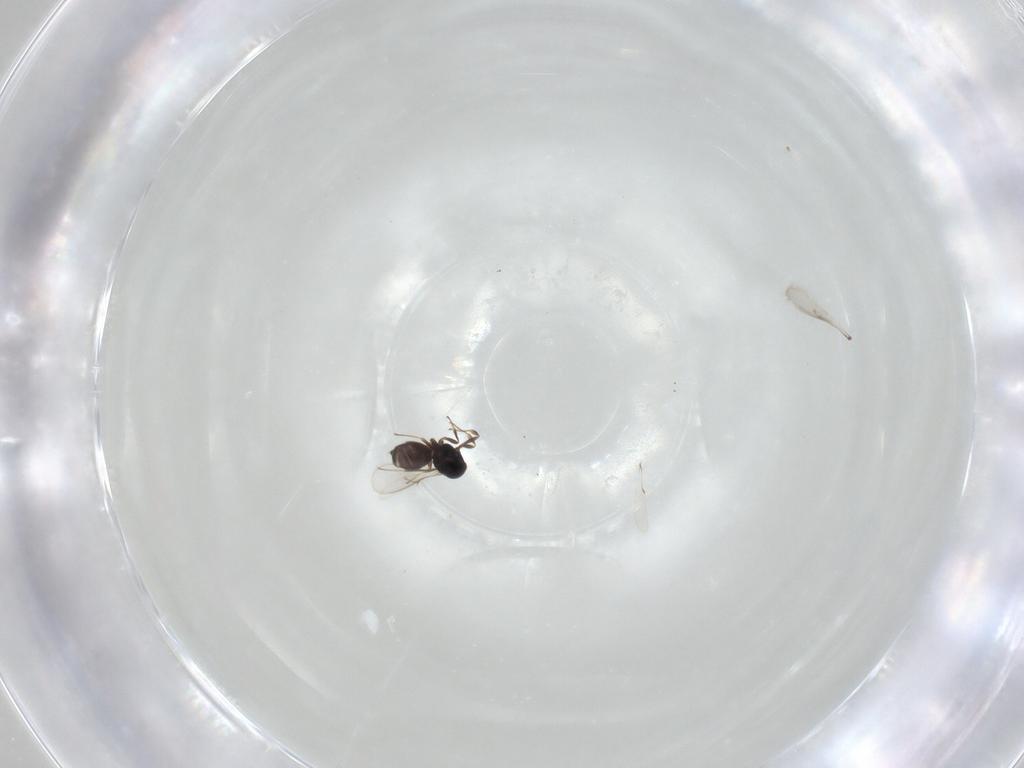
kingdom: Animalia
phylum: Arthropoda
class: Insecta
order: Hymenoptera
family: Scelionidae
